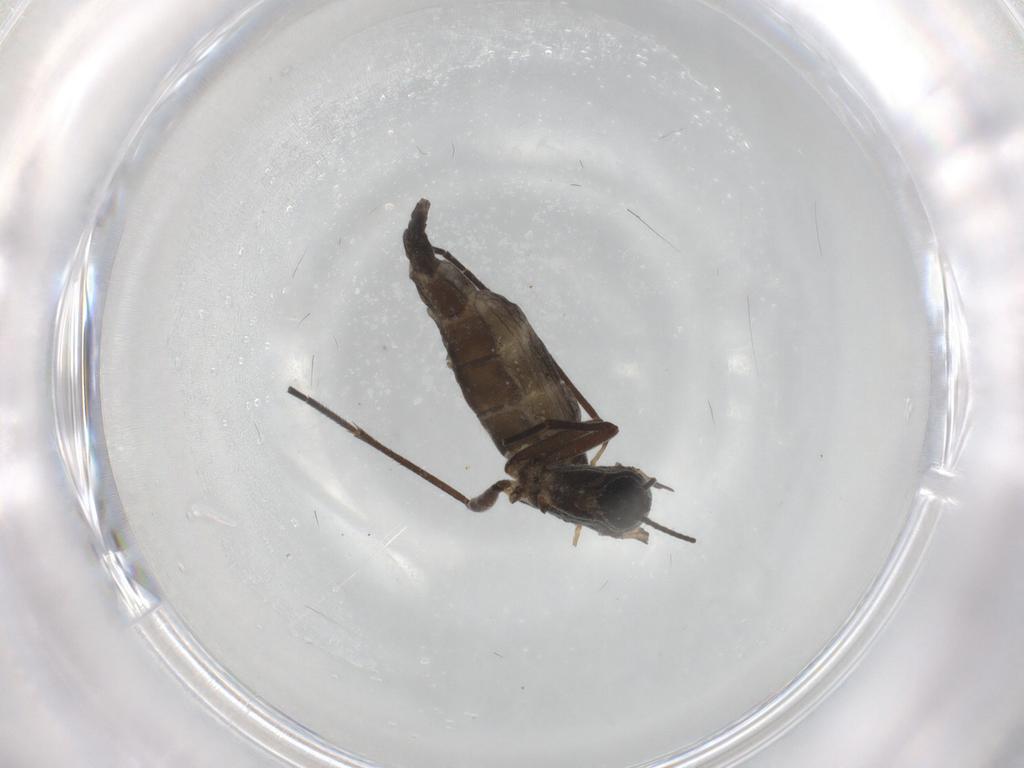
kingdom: Animalia
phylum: Arthropoda
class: Insecta
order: Diptera
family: Sciaridae
